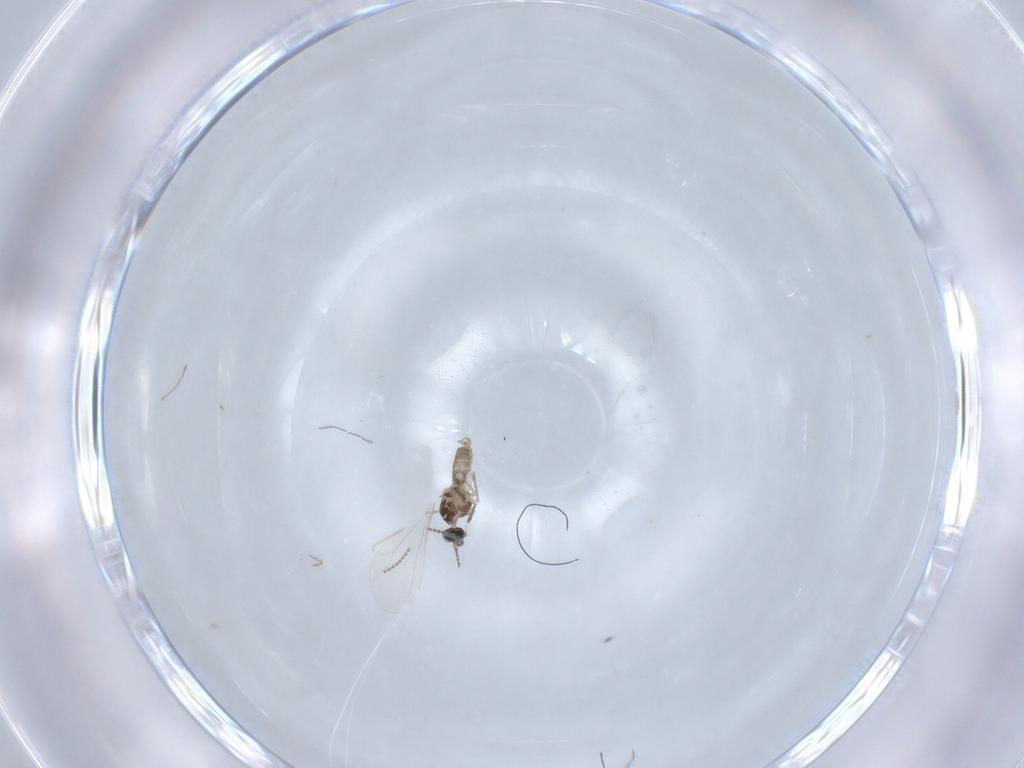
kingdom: Animalia
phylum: Arthropoda
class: Insecta
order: Diptera
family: Cecidomyiidae
